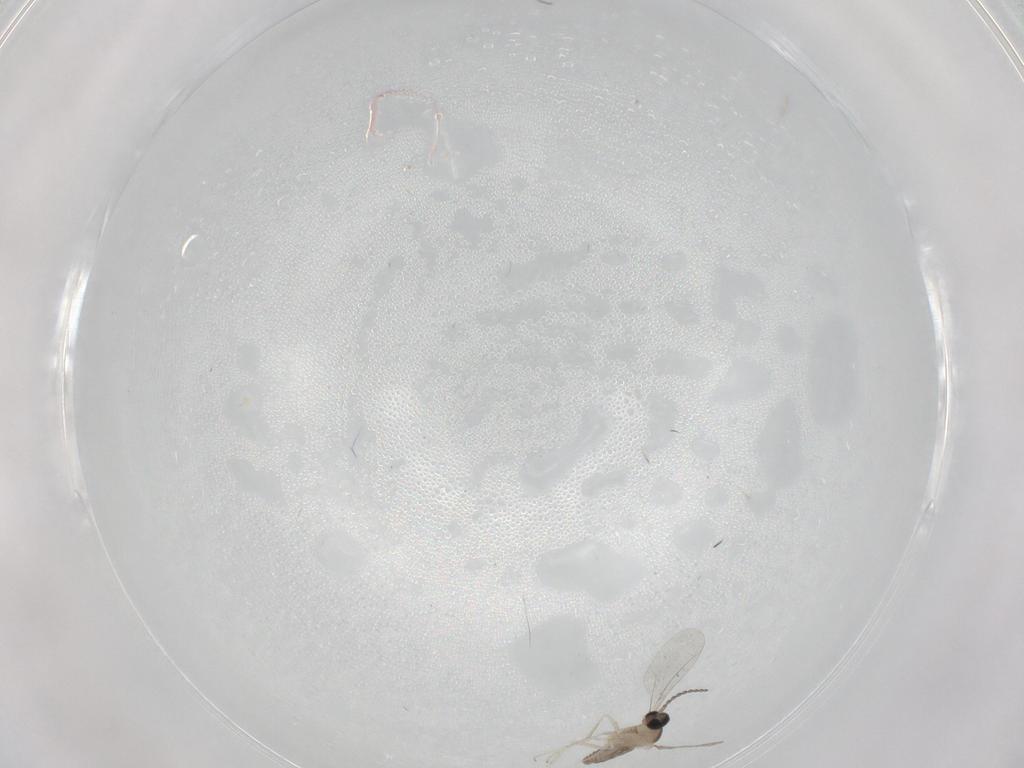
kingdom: Animalia
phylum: Arthropoda
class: Insecta
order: Diptera
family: Cecidomyiidae
